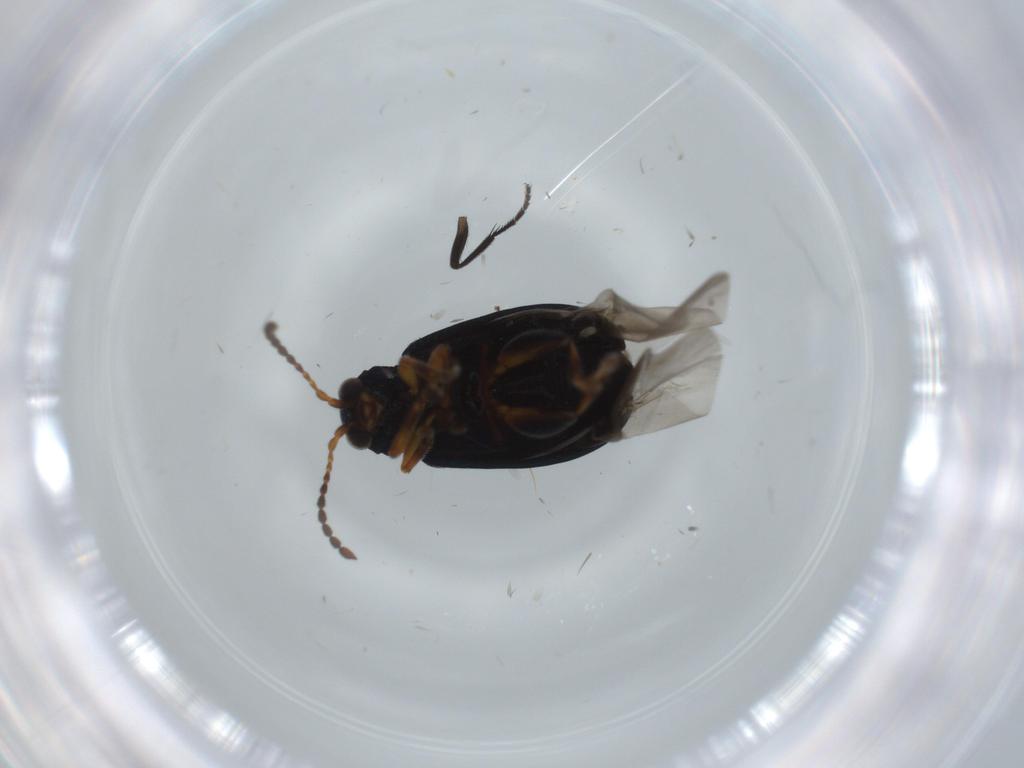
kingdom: Animalia
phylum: Arthropoda
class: Insecta
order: Coleoptera
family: Chrysomelidae
